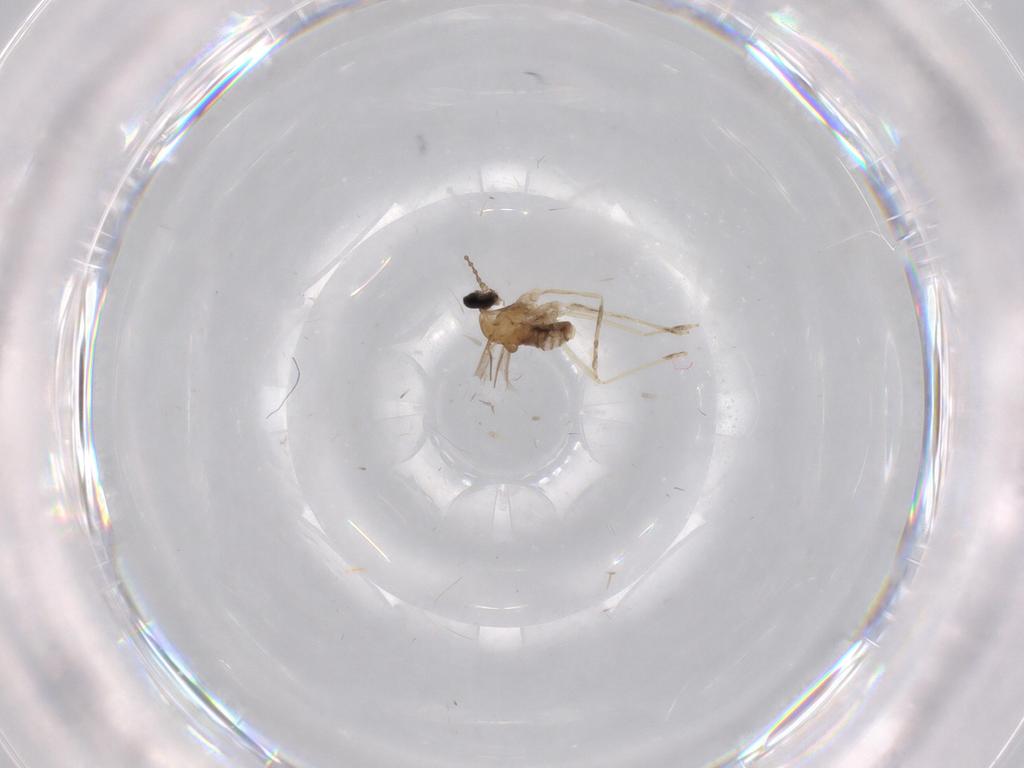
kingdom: Animalia
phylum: Arthropoda
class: Insecta
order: Diptera
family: Cecidomyiidae
